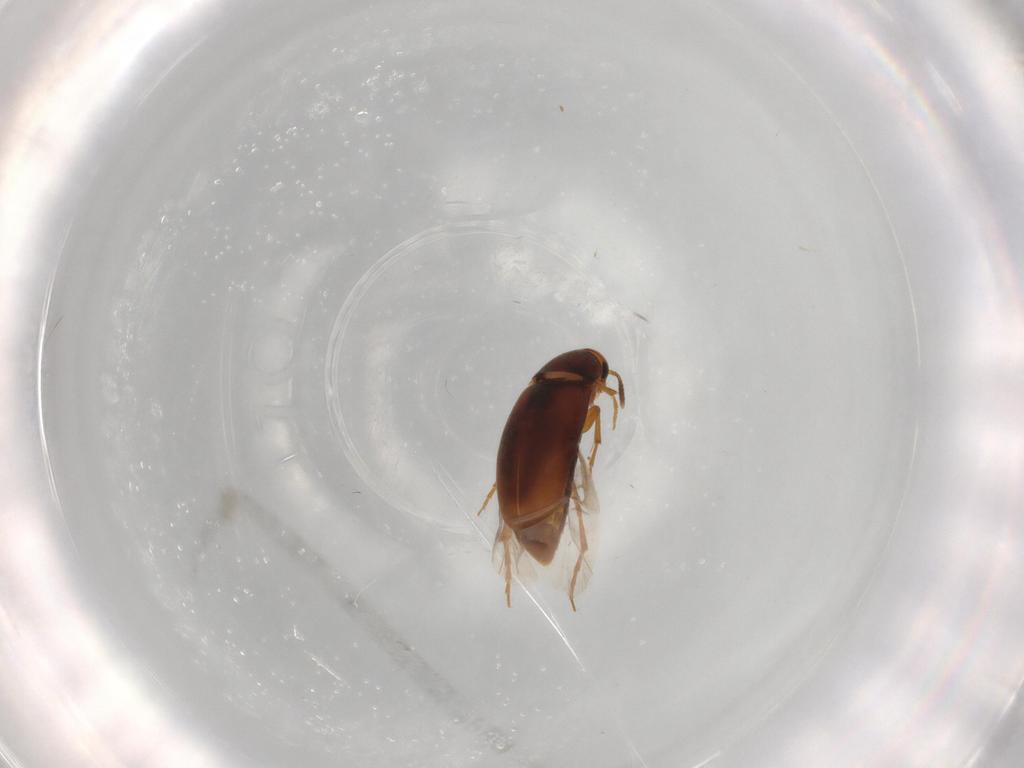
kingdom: Animalia
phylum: Arthropoda
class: Insecta
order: Coleoptera
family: Scraptiidae
